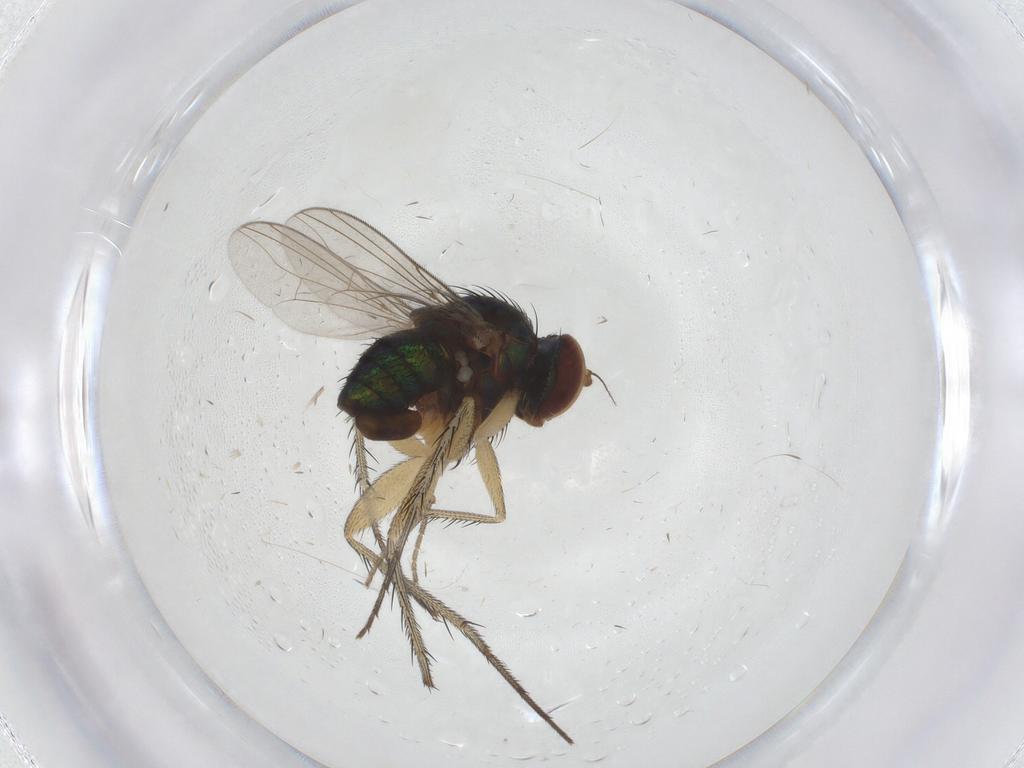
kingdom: Animalia
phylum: Arthropoda
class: Insecta
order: Diptera
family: Dolichopodidae
